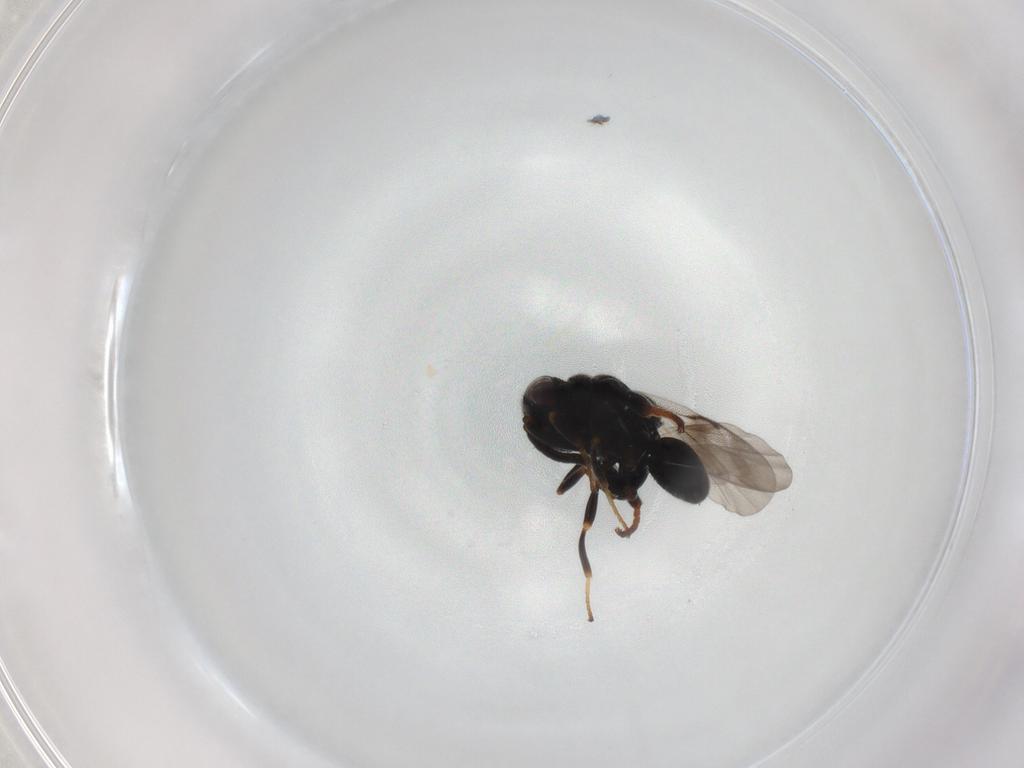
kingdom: Animalia
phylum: Arthropoda
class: Insecta
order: Hymenoptera
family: Chalcididae
